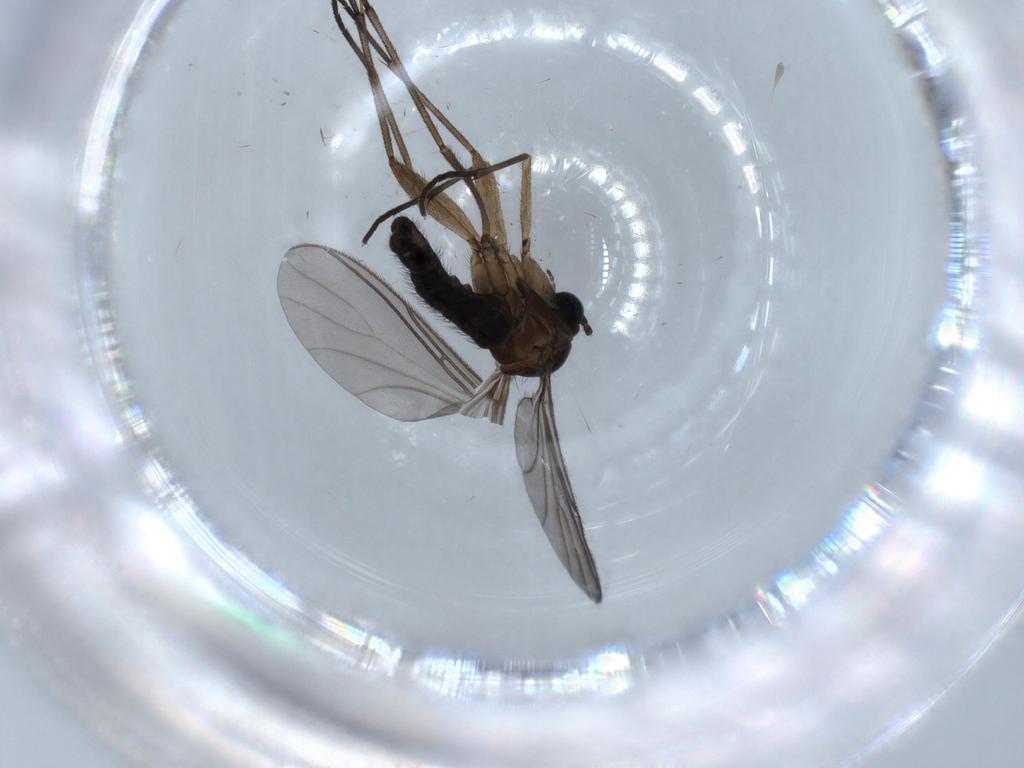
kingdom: Animalia
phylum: Arthropoda
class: Insecta
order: Diptera
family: Sciaridae
